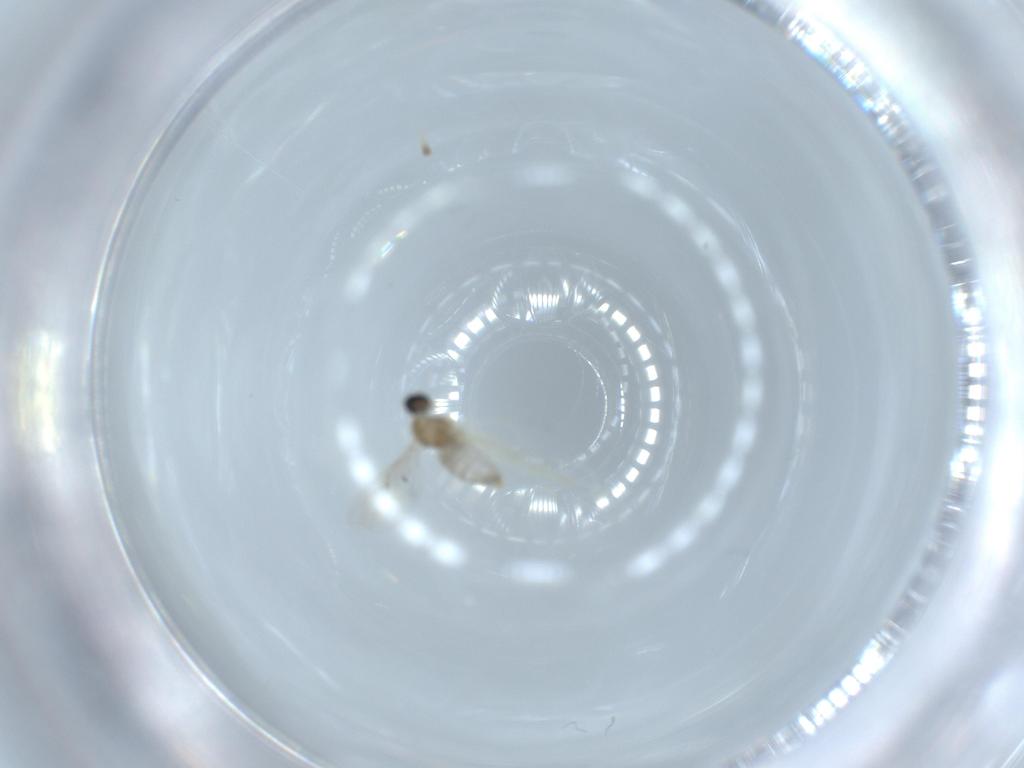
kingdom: Animalia
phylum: Arthropoda
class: Insecta
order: Diptera
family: Cecidomyiidae
